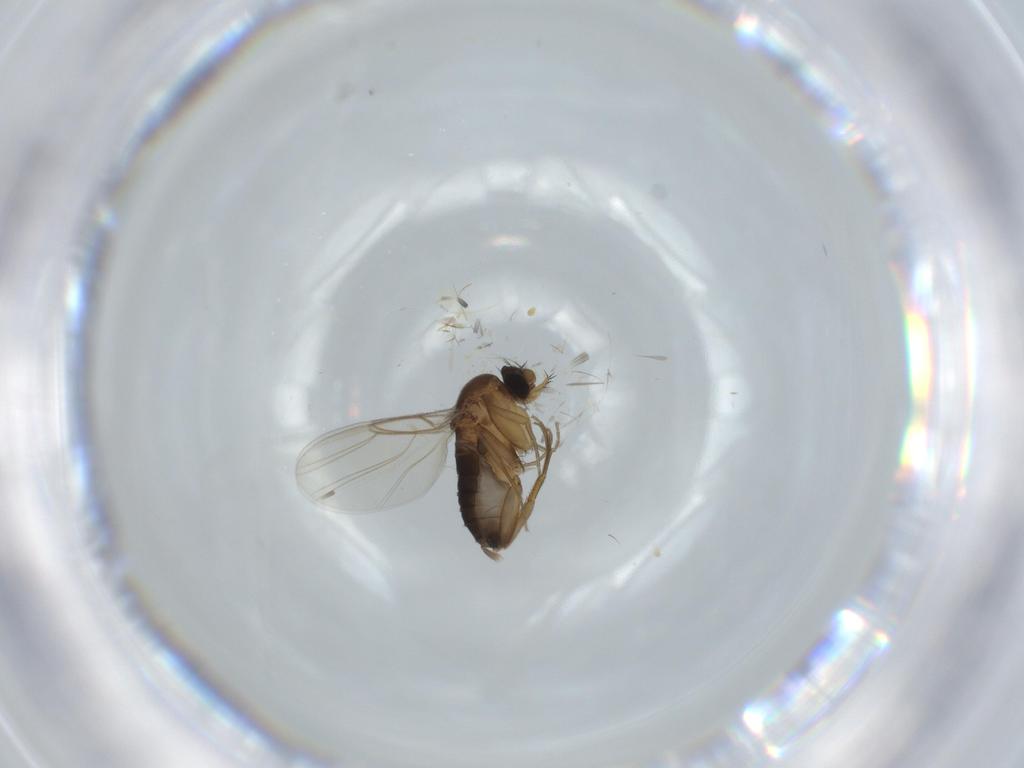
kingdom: Animalia
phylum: Arthropoda
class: Insecta
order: Diptera
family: Phoridae
